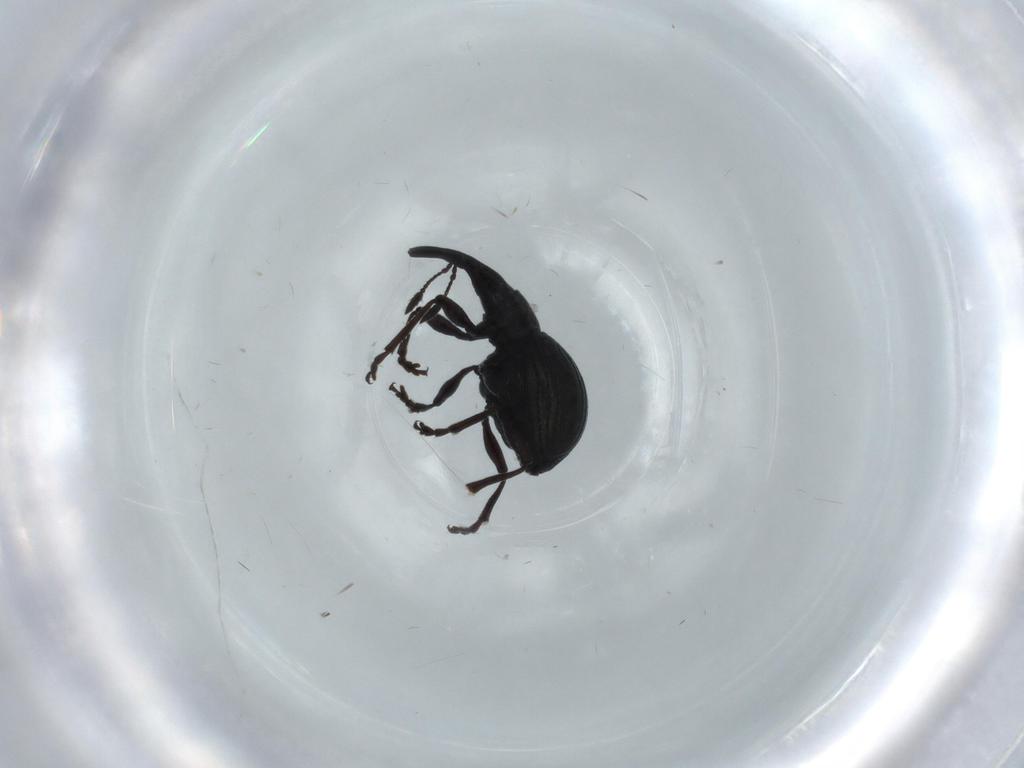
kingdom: Animalia
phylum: Arthropoda
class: Insecta
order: Coleoptera
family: Brentidae
